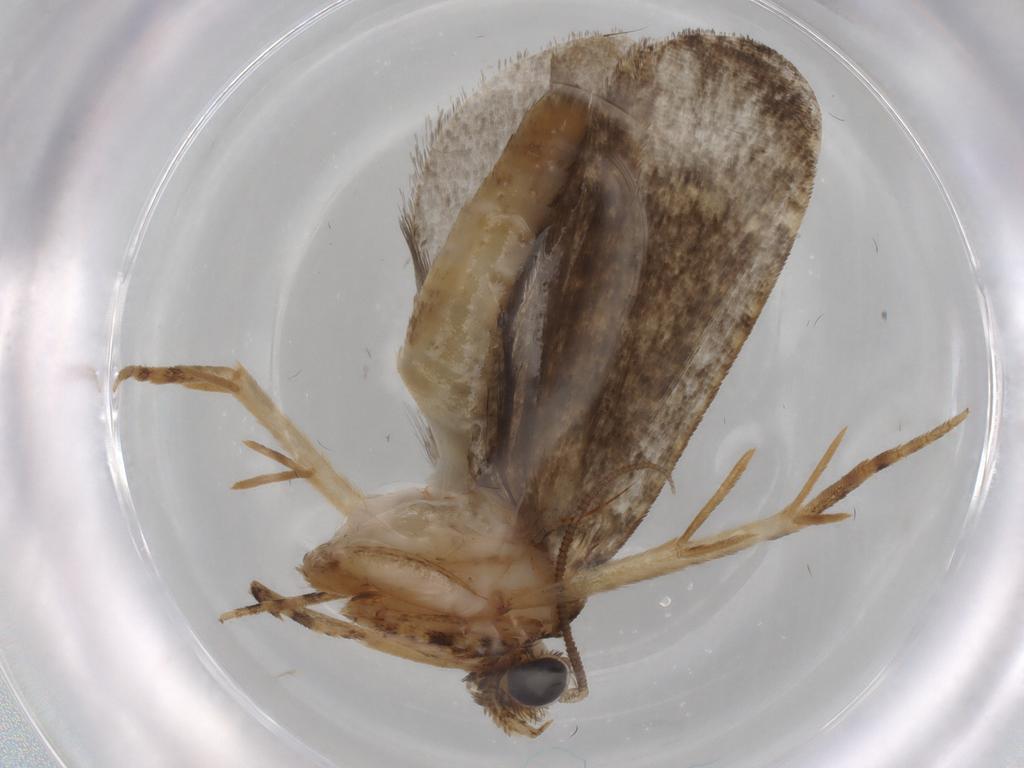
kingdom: Animalia
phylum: Arthropoda
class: Insecta
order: Lepidoptera
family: Tineidae
